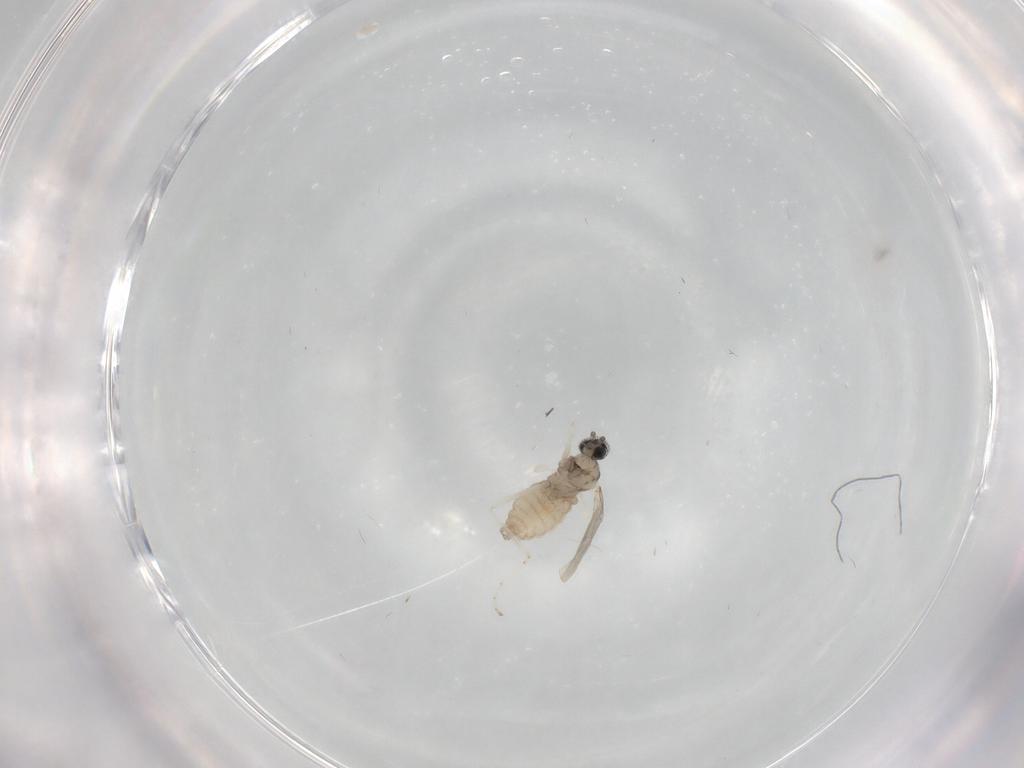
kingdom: Animalia
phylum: Arthropoda
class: Insecta
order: Diptera
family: Cecidomyiidae
